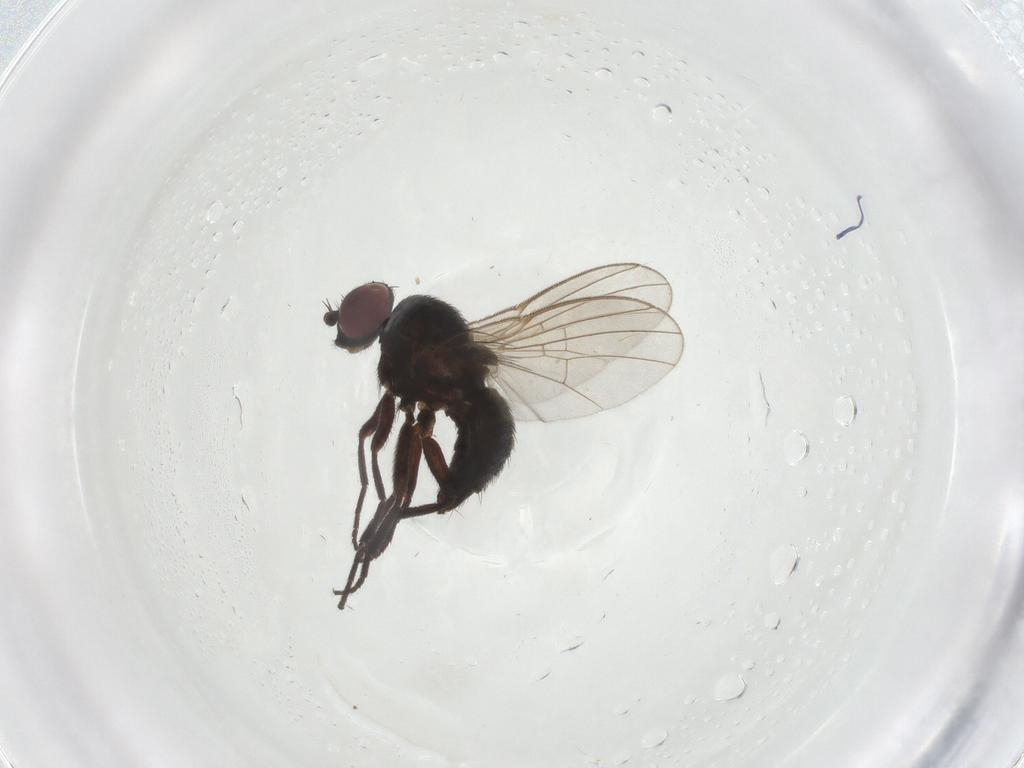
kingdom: Animalia
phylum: Arthropoda
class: Insecta
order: Diptera
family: Agromyzidae
